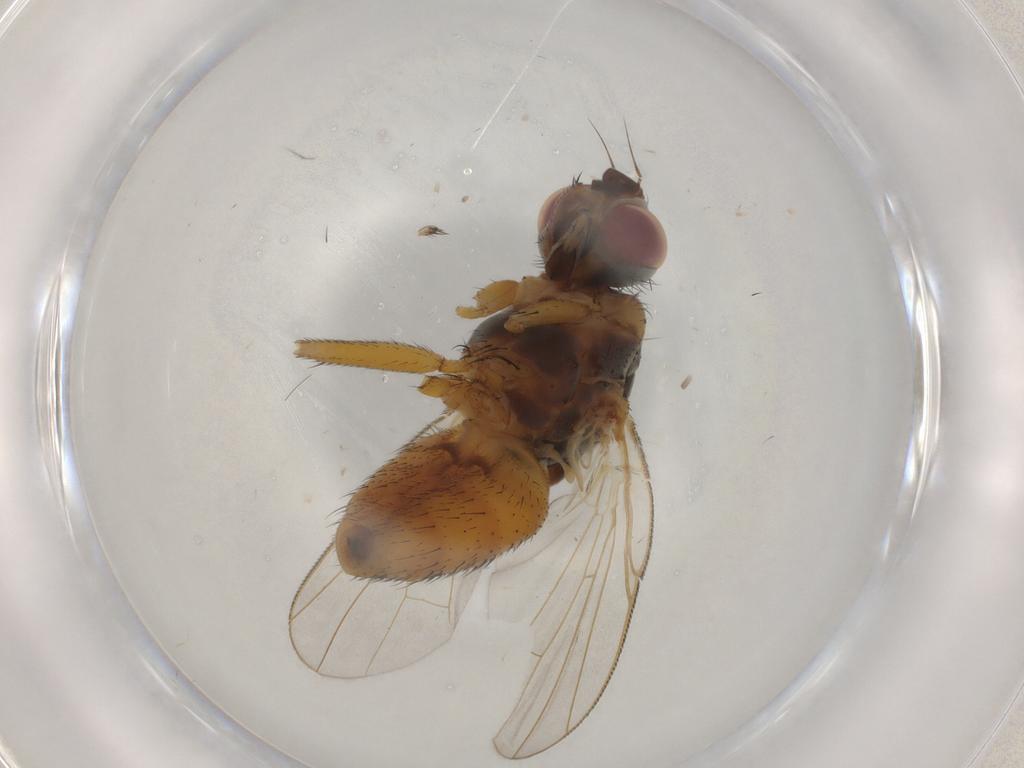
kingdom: Animalia
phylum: Arthropoda
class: Insecta
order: Diptera
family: Muscidae
